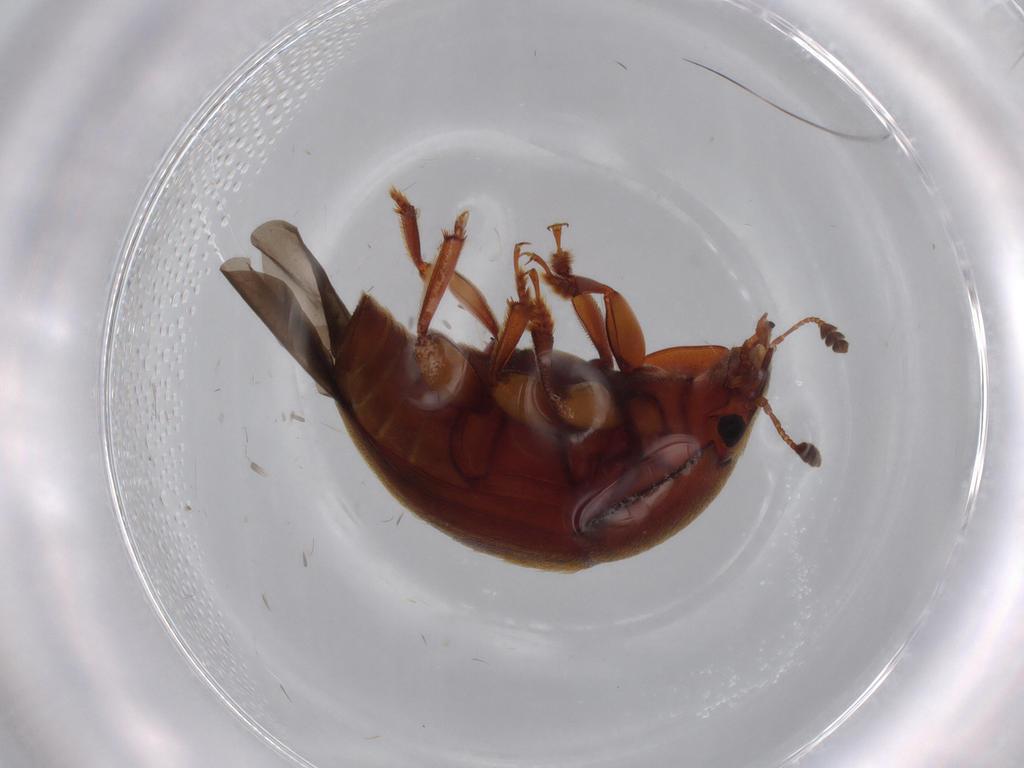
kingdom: Animalia
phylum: Arthropoda
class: Insecta
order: Coleoptera
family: Nitidulidae
